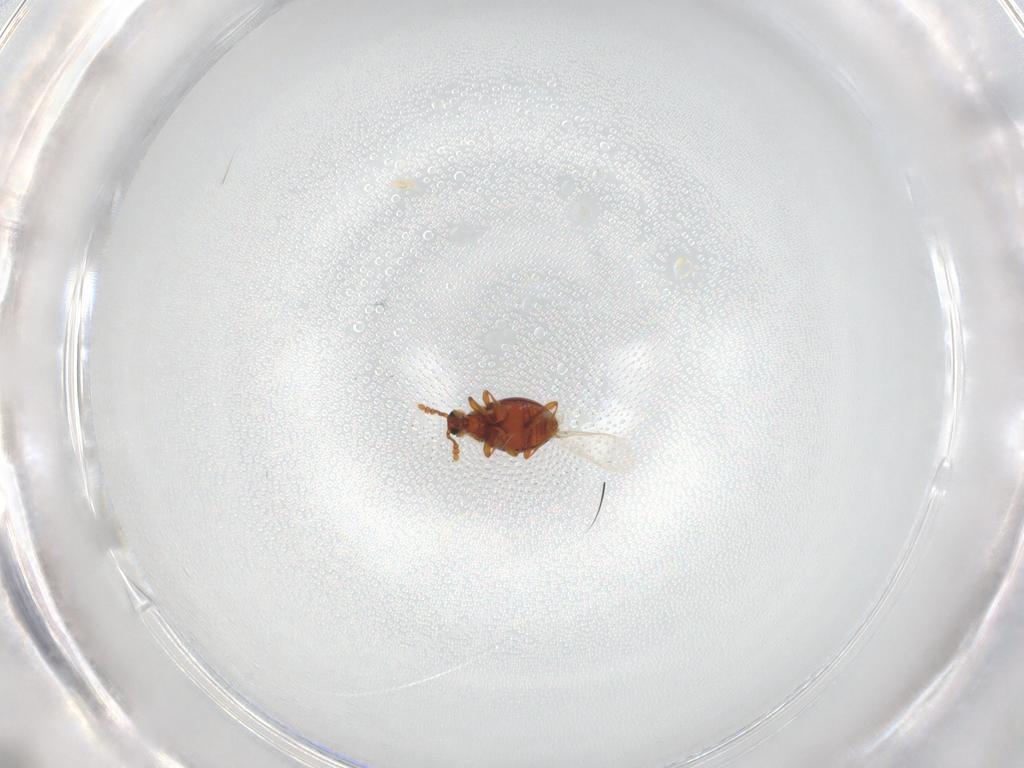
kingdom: Animalia
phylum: Arthropoda
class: Insecta
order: Coleoptera
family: Staphylinidae
